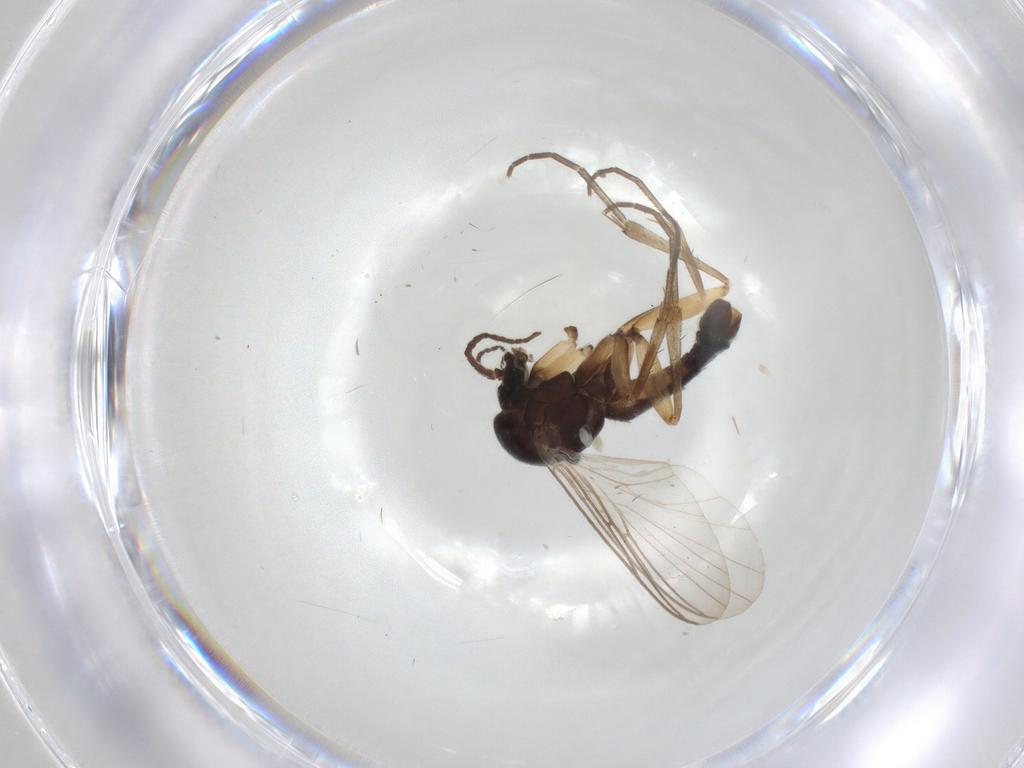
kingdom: Animalia
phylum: Arthropoda
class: Insecta
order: Diptera
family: Mycetophilidae
